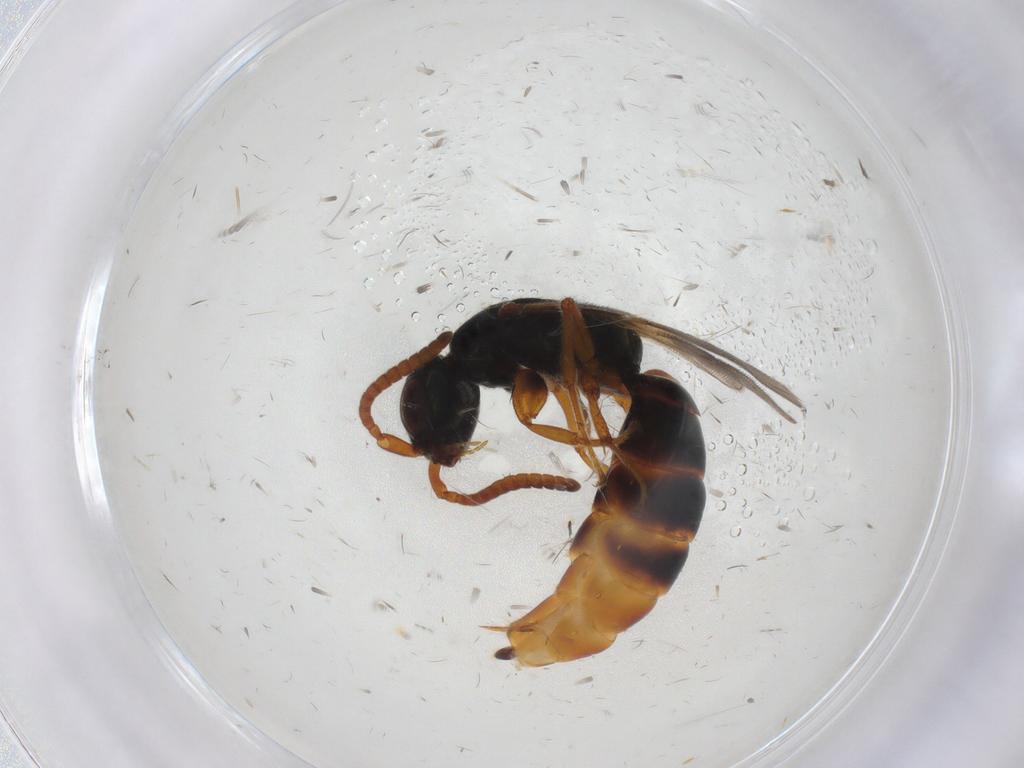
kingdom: Animalia
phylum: Arthropoda
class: Insecta
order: Hymenoptera
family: Bethylidae
